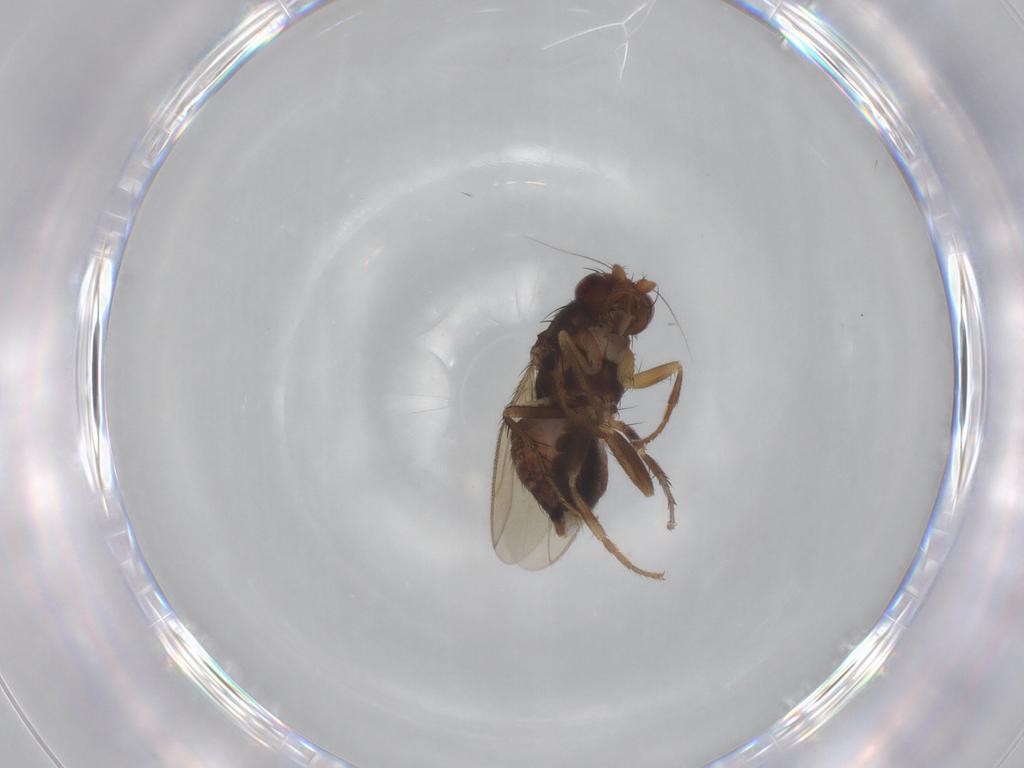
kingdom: Animalia
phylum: Arthropoda
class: Insecta
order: Diptera
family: Sphaeroceridae
